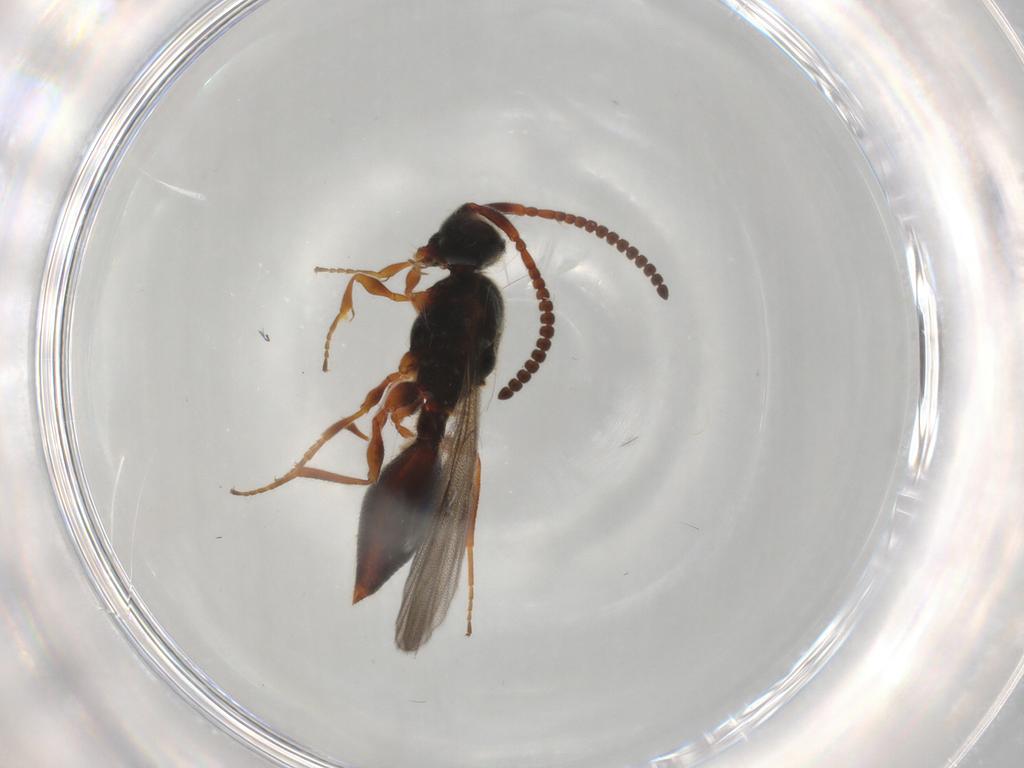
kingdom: Animalia
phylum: Arthropoda
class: Insecta
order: Hymenoptera
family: Diapriidae
